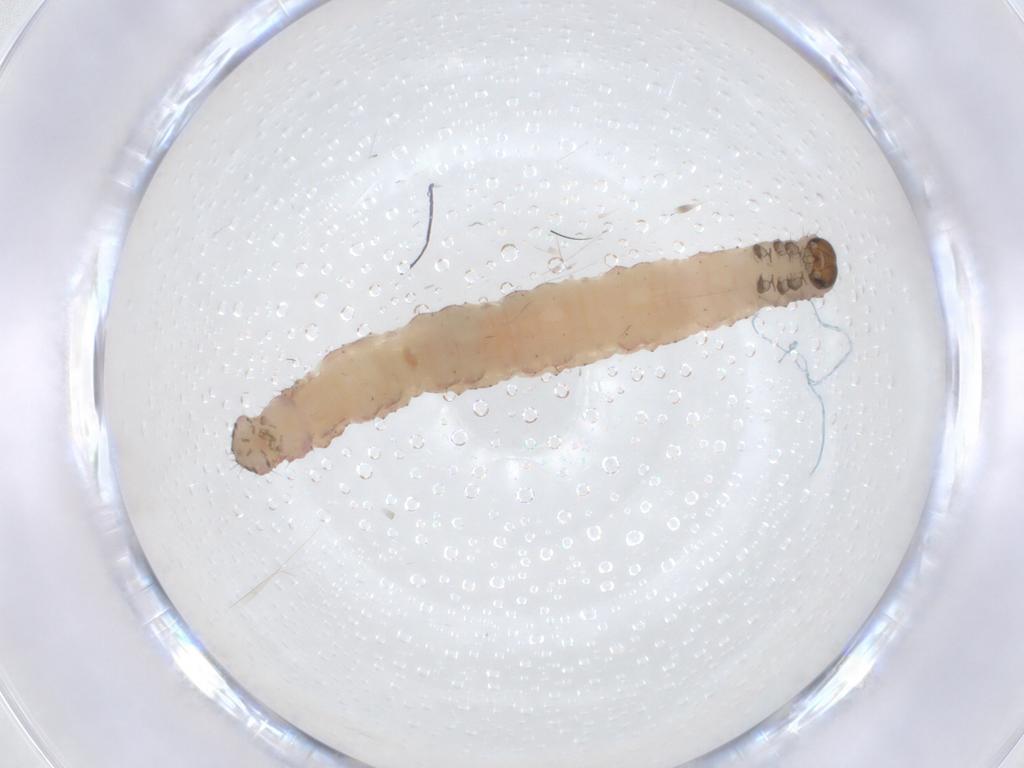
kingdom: Animalia
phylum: Arthropoda
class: Insecta
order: Lepidoptera
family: Geometridae
